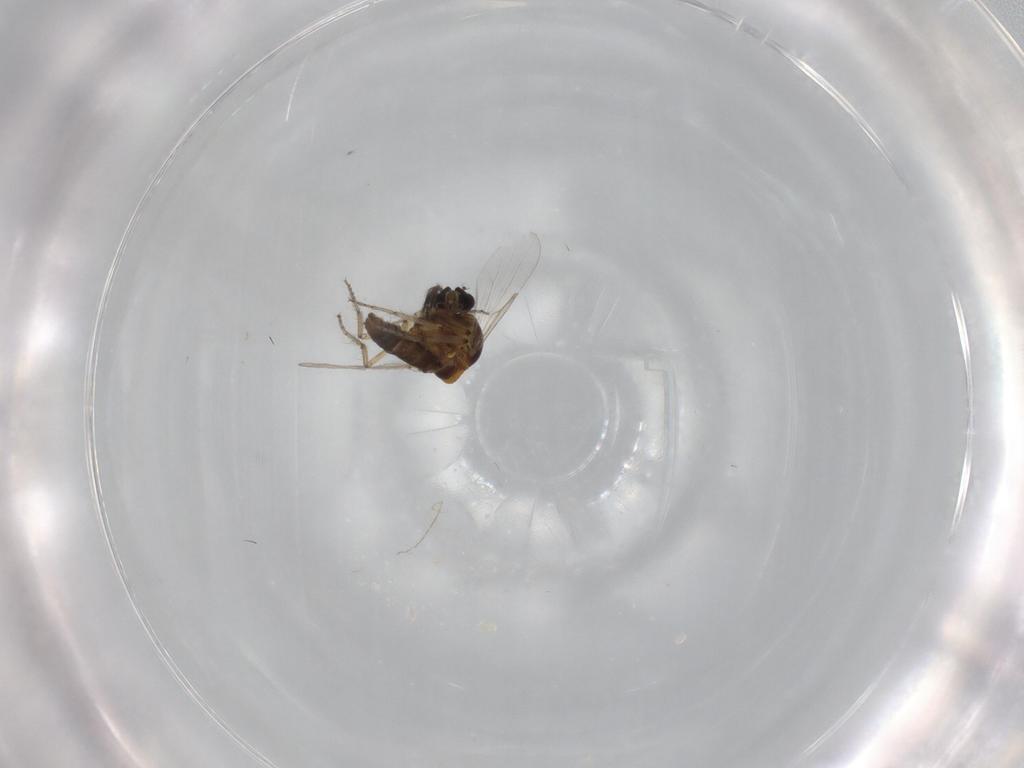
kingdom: Animalia
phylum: Arthropoda
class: Insecta
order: Diptera
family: Ceratopogonidae
